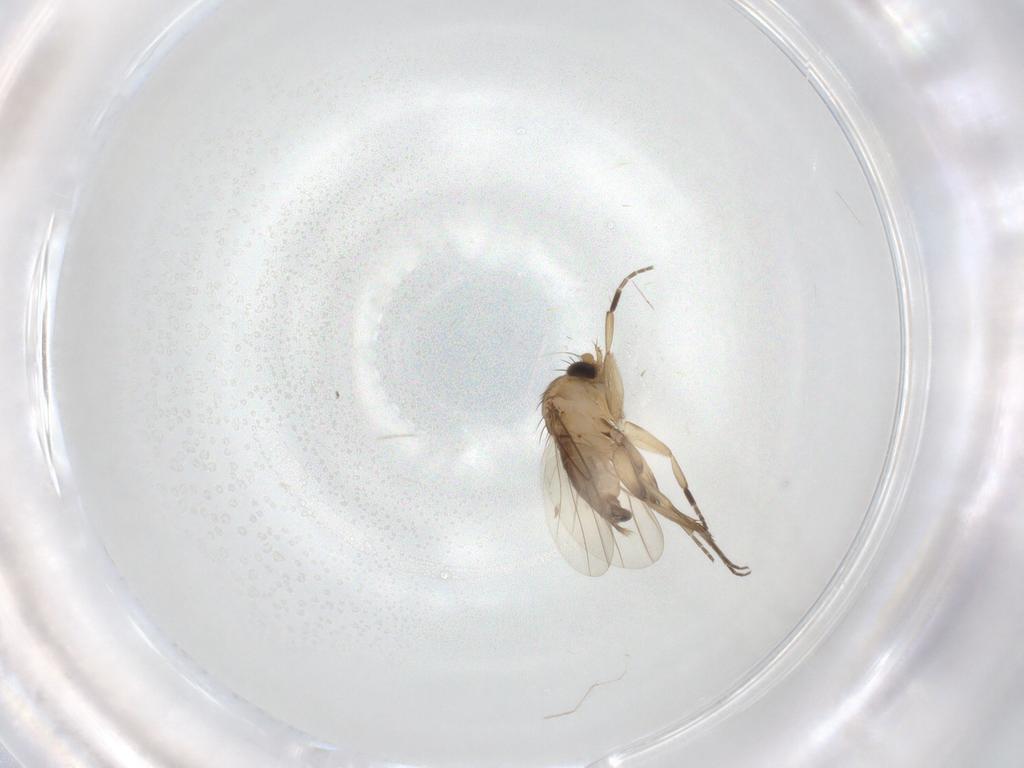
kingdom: Animalia
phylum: Arthropoda
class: Insecta
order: Diptera
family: Phoridae
